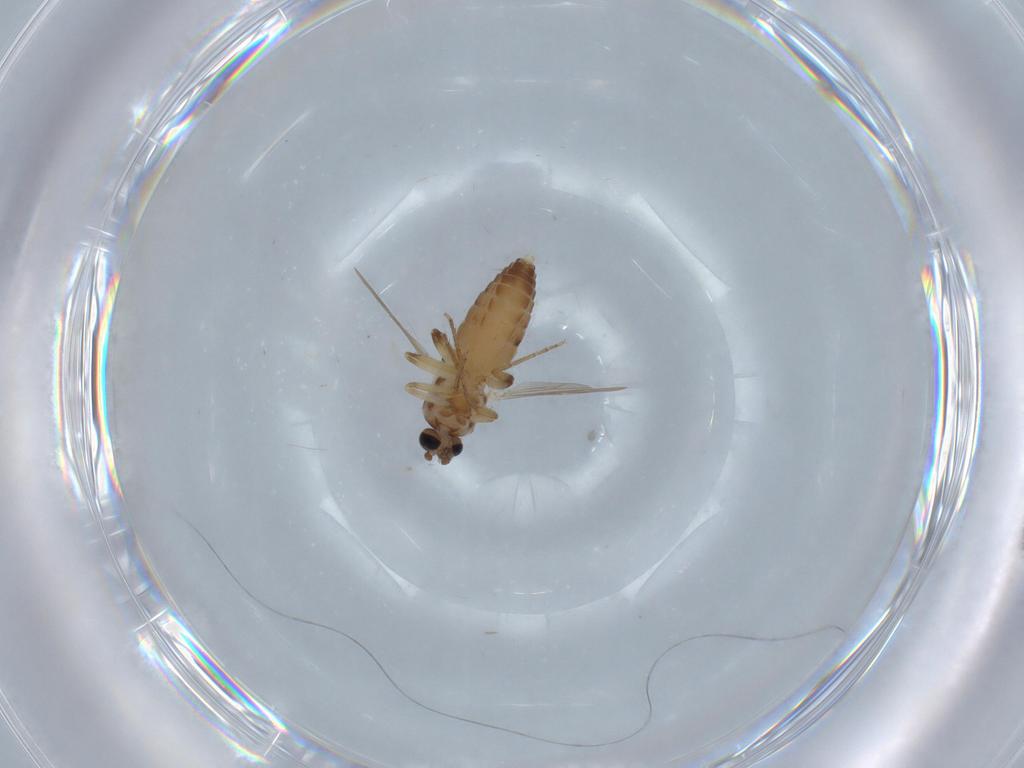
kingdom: Animalia
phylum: Arthropoda
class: Insecta
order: Diptera
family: Ceratopogonidae
